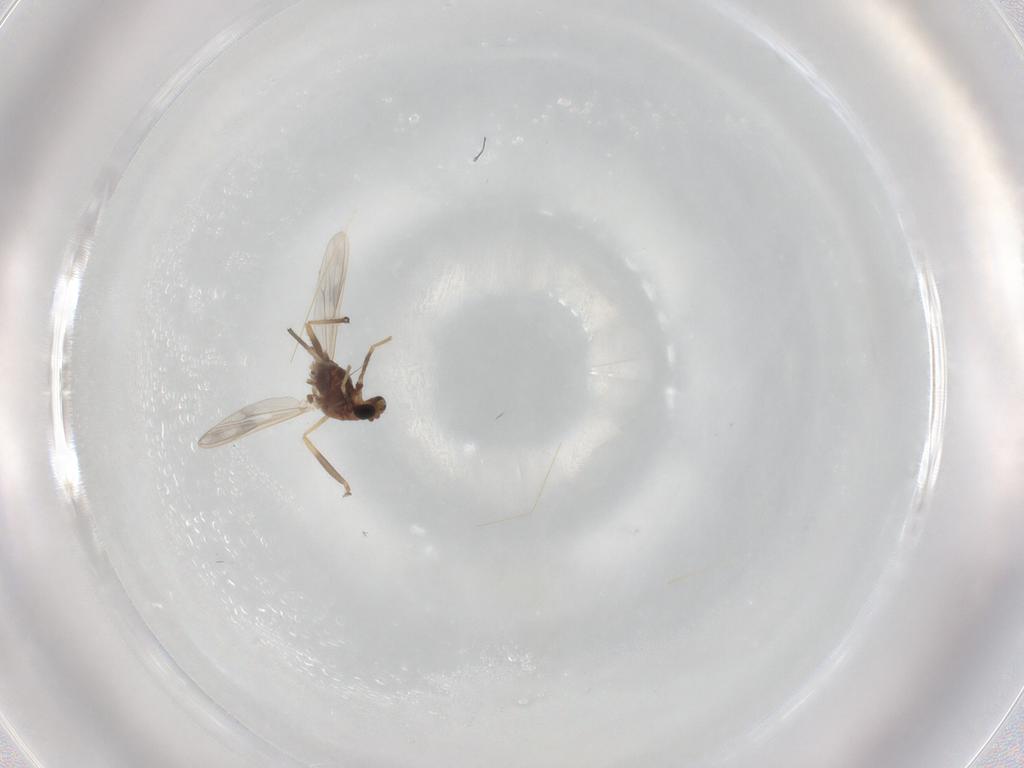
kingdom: Animalia
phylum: Arthropoda
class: Insecta
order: Diptera
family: Chironomidae
